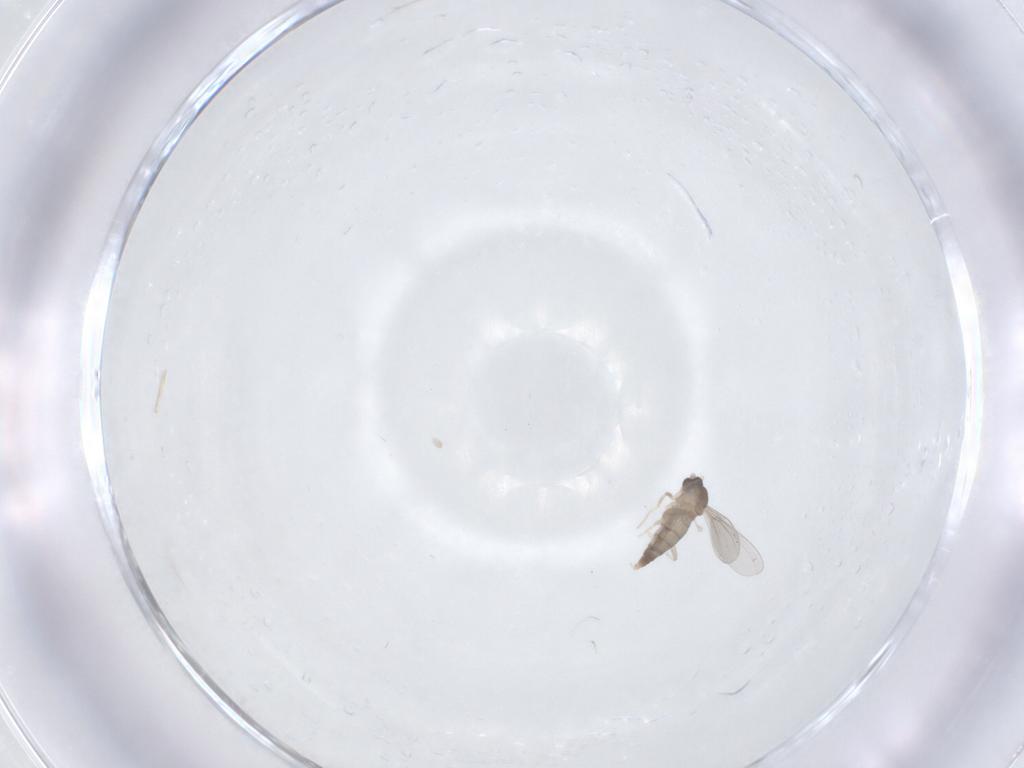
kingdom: Animalia
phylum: Arthropoda
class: Insecta
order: Diptera
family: Cecidomyiidae
